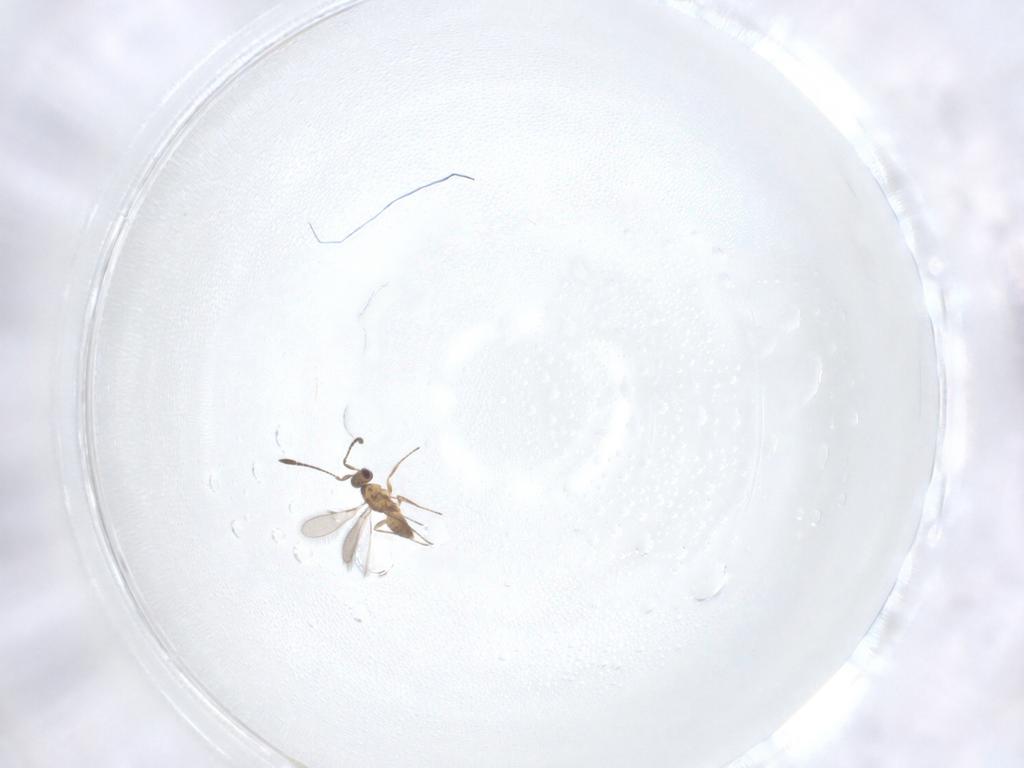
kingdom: Animalia
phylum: Arthropoda
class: Insecta
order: Hymenoptera
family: Mymaridae
